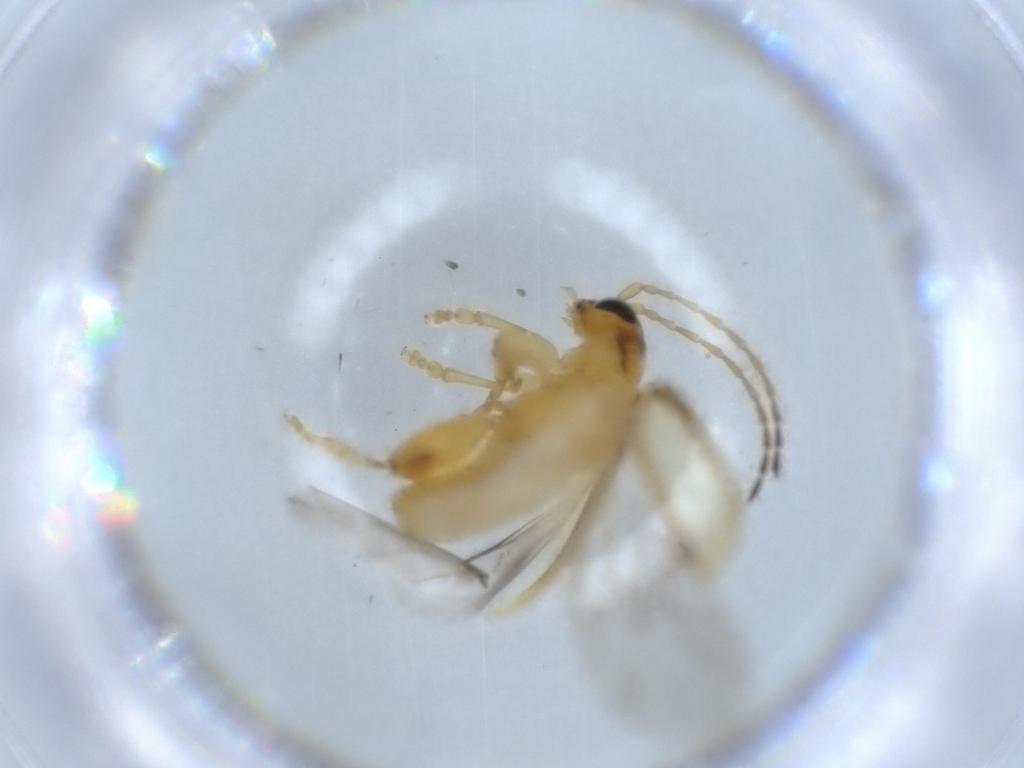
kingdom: Animalia
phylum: Arthropoda
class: Insecta
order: Coleoptera
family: Chrysomelidae
